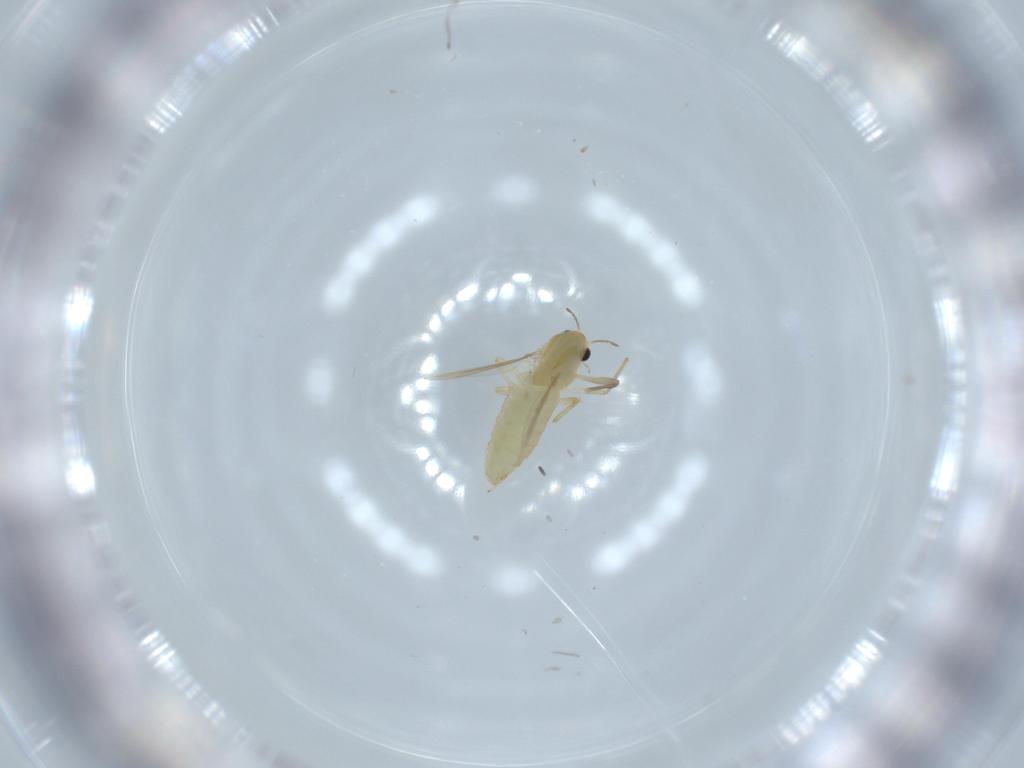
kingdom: Animalia
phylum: Arthropoda
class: Insecta
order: Diptera
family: Chironomidae
